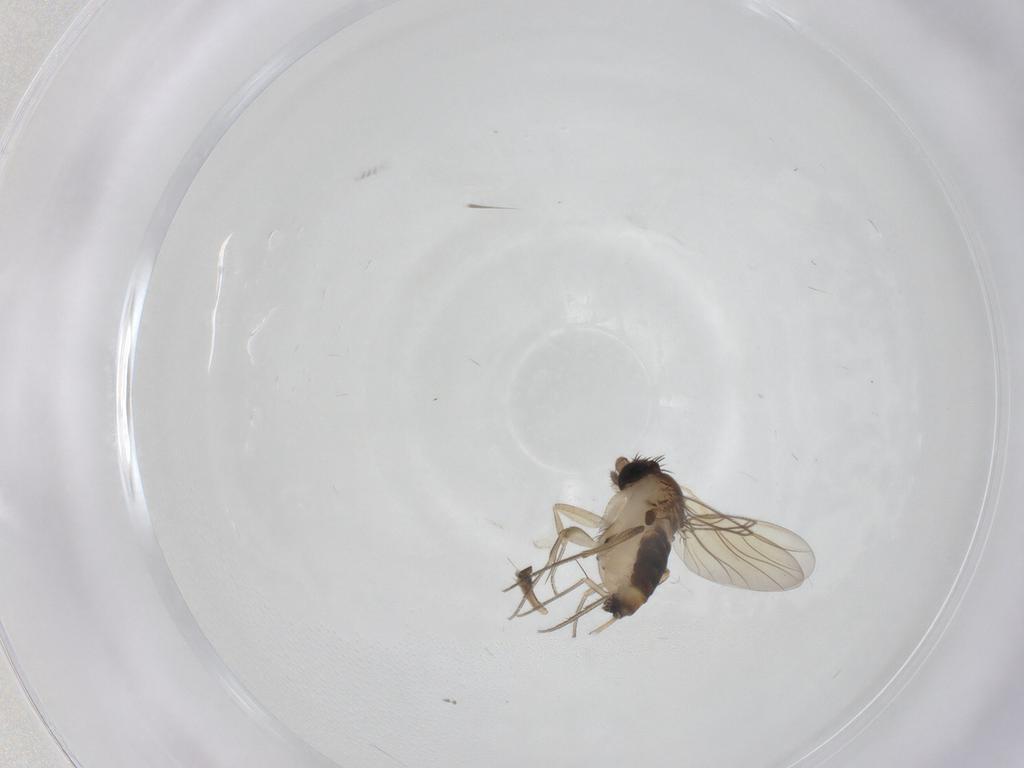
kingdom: Animalia
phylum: Arthropoda
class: Insecta
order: Diptera
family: Phoridae
